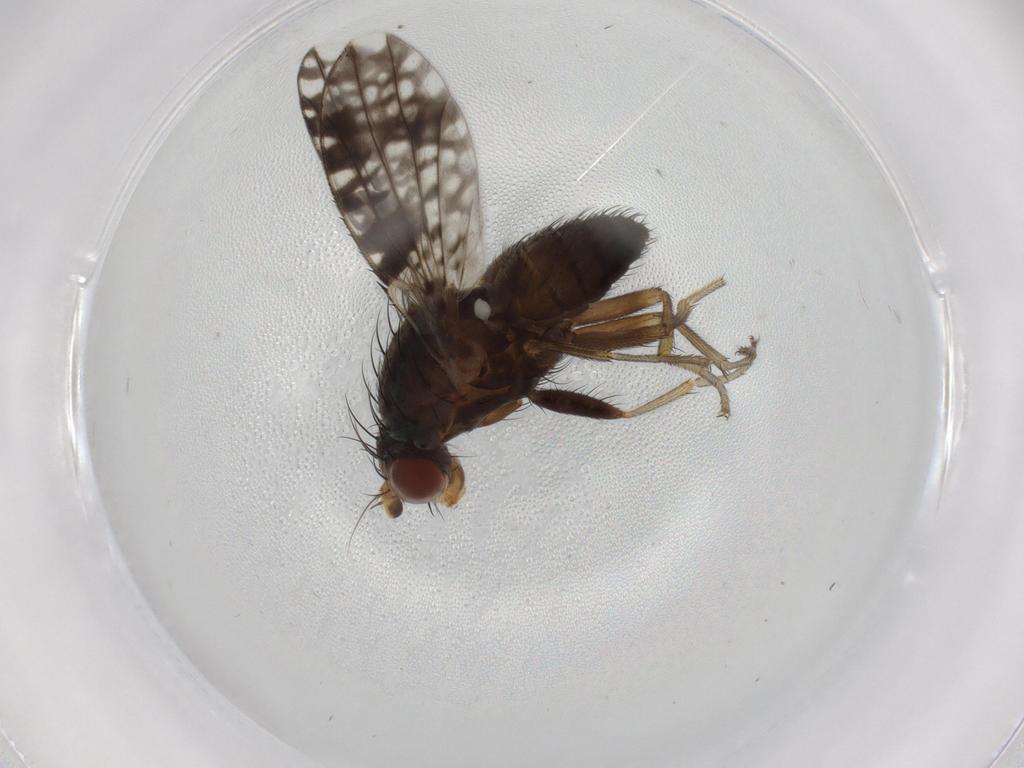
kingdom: Animalia
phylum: Arthropoda
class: Insecta
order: Diptera
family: Tephritidae
